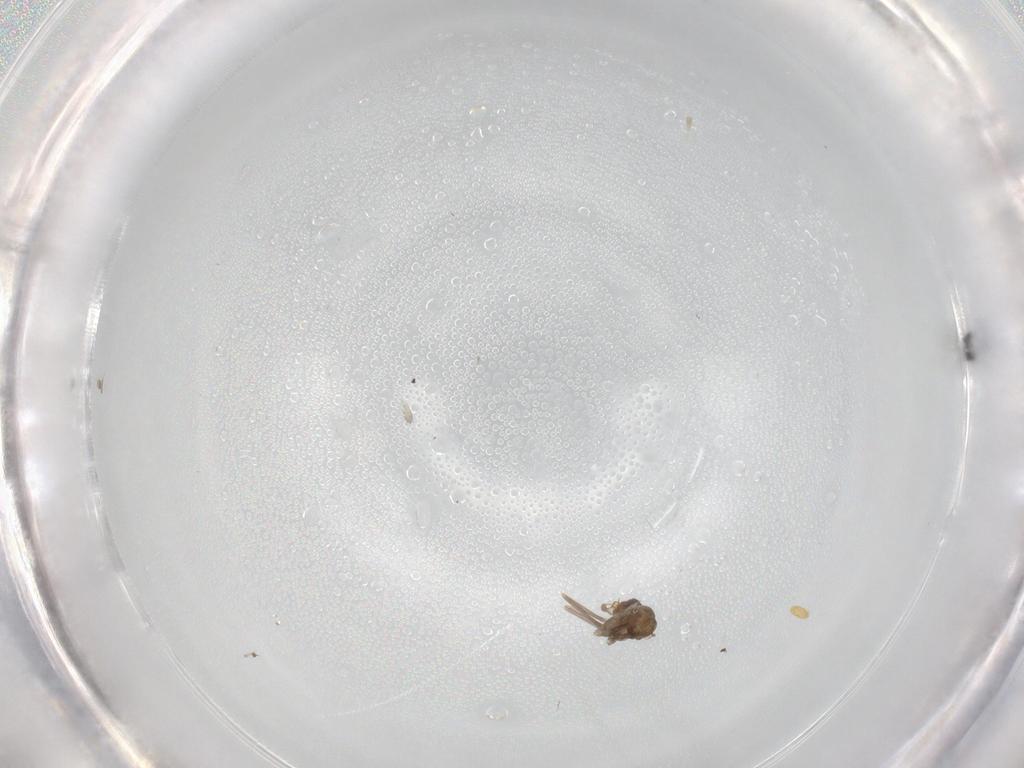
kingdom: Animalia
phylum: Arthropoda
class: Insecta
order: Diptera
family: Cecidomyiidae
